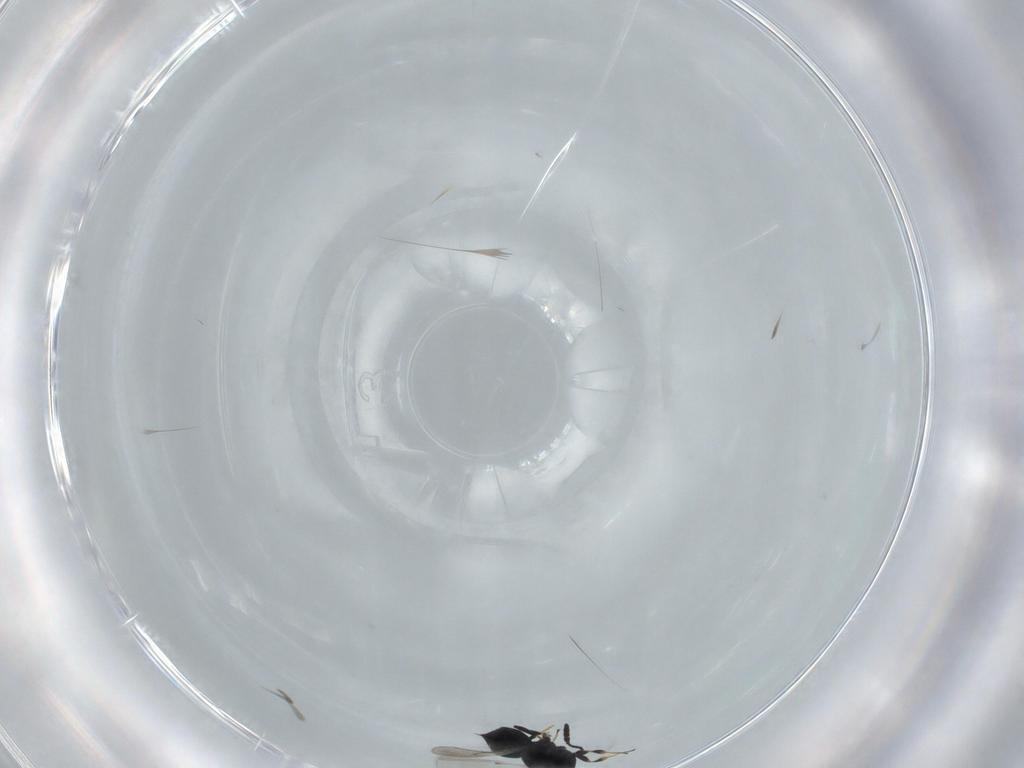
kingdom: Animalia
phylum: Arthropoda
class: Insecta
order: Hymenoptera
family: Scelionidae
